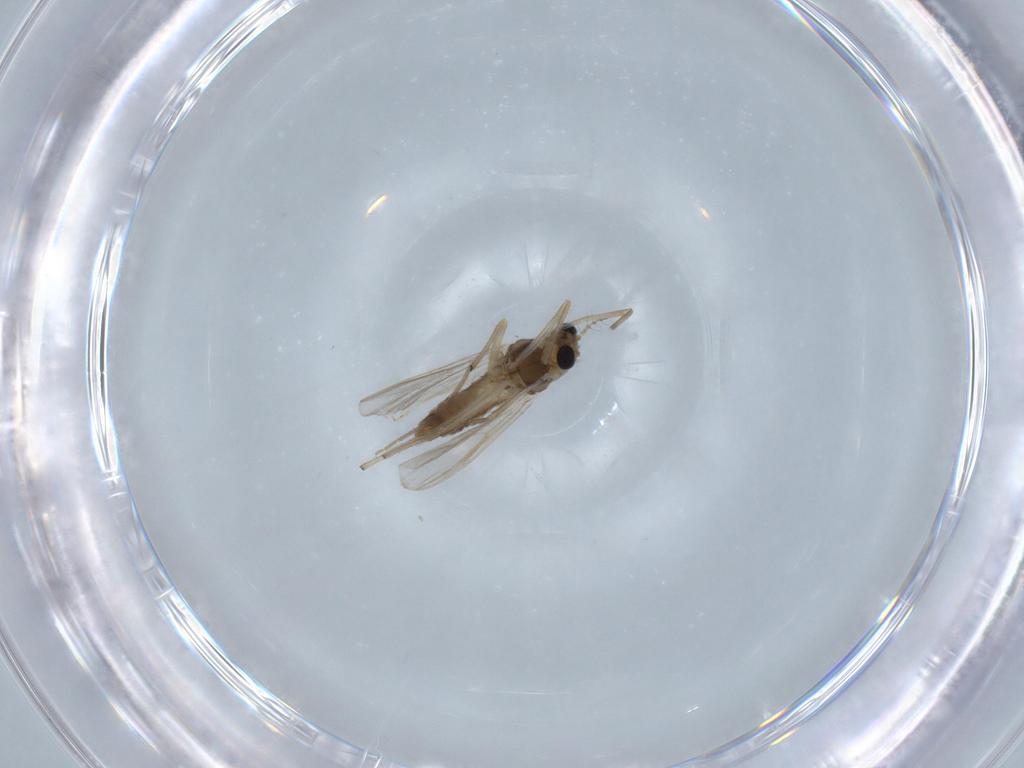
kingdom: Animalia
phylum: Arthropoda
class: Insecta
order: Diptera
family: Chironomidae
